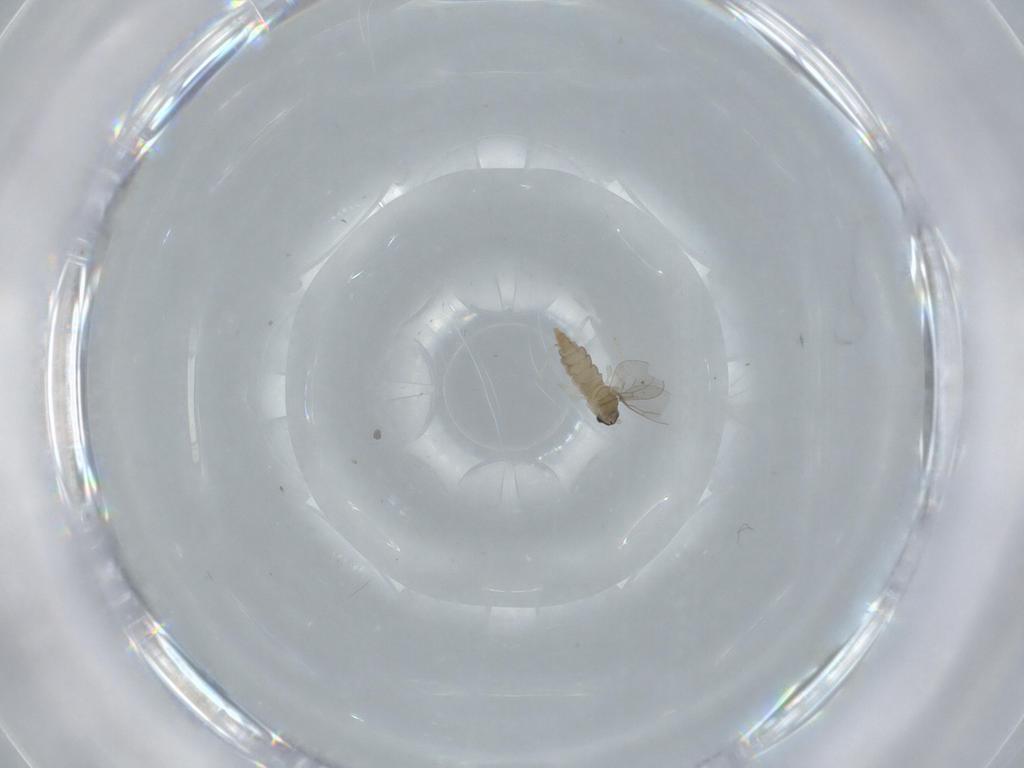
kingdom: Animalia
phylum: Arthropoda
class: Insecta
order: Diptera
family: Cecidomyiidae
